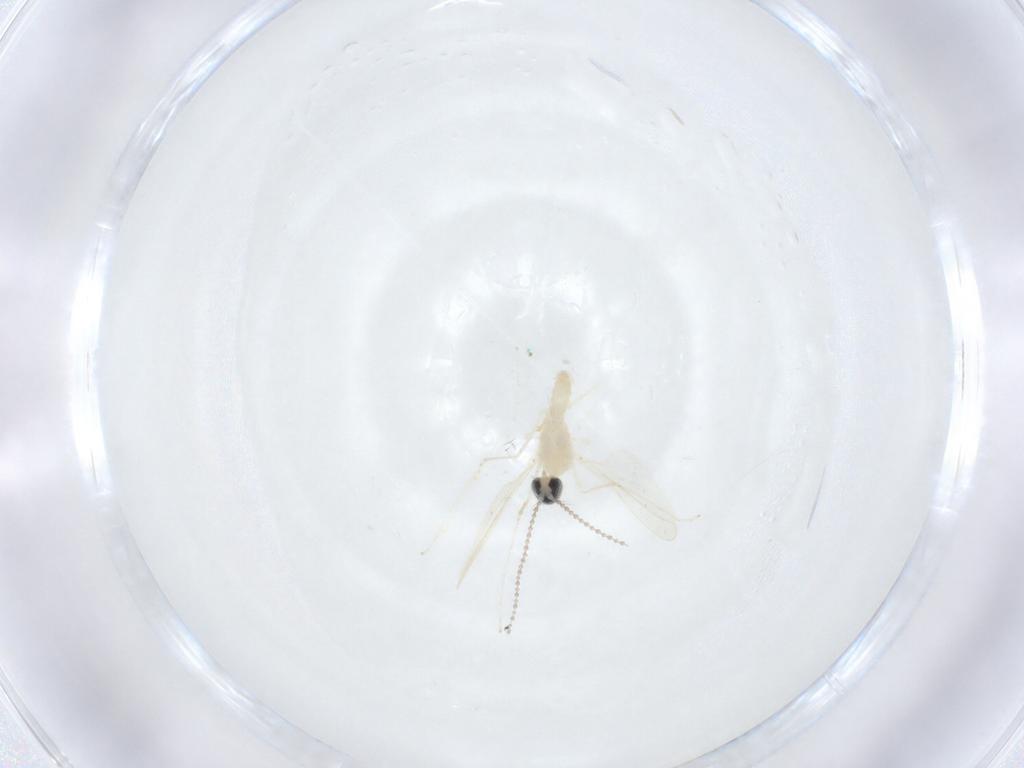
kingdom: Animalia
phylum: Arthropoda
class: Insecta
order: Diptera
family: Cecidomyiidae
